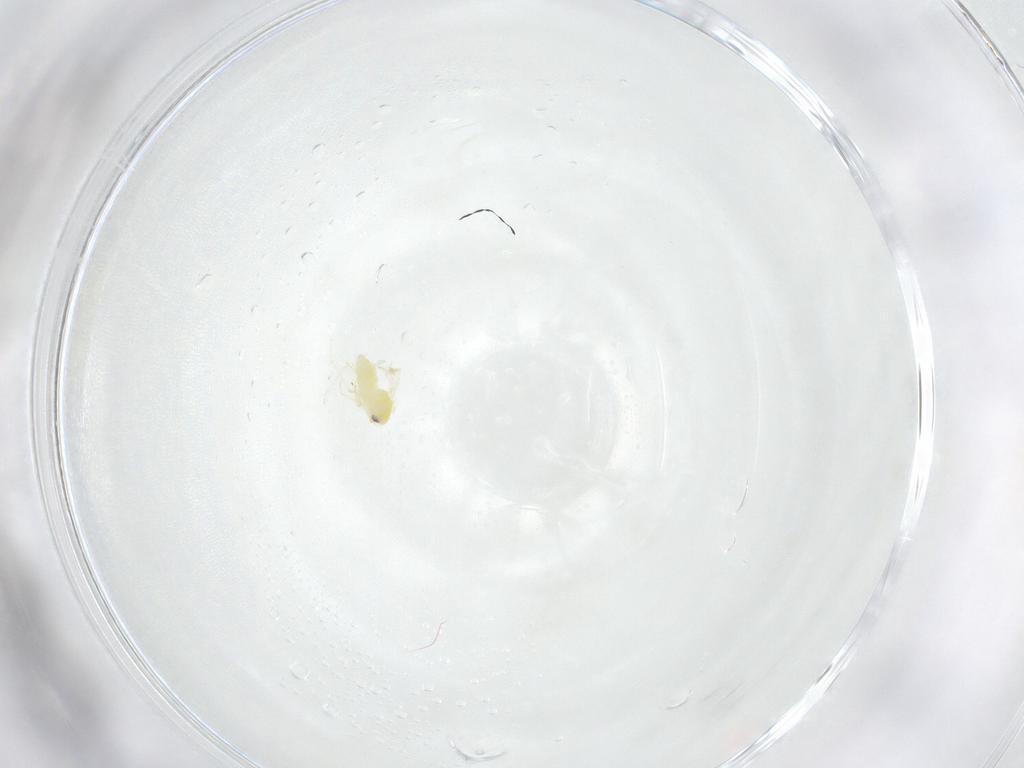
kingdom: Animalia
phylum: Arthropoda
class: Insecta
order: Hemiptera
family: Aleyrodidae
